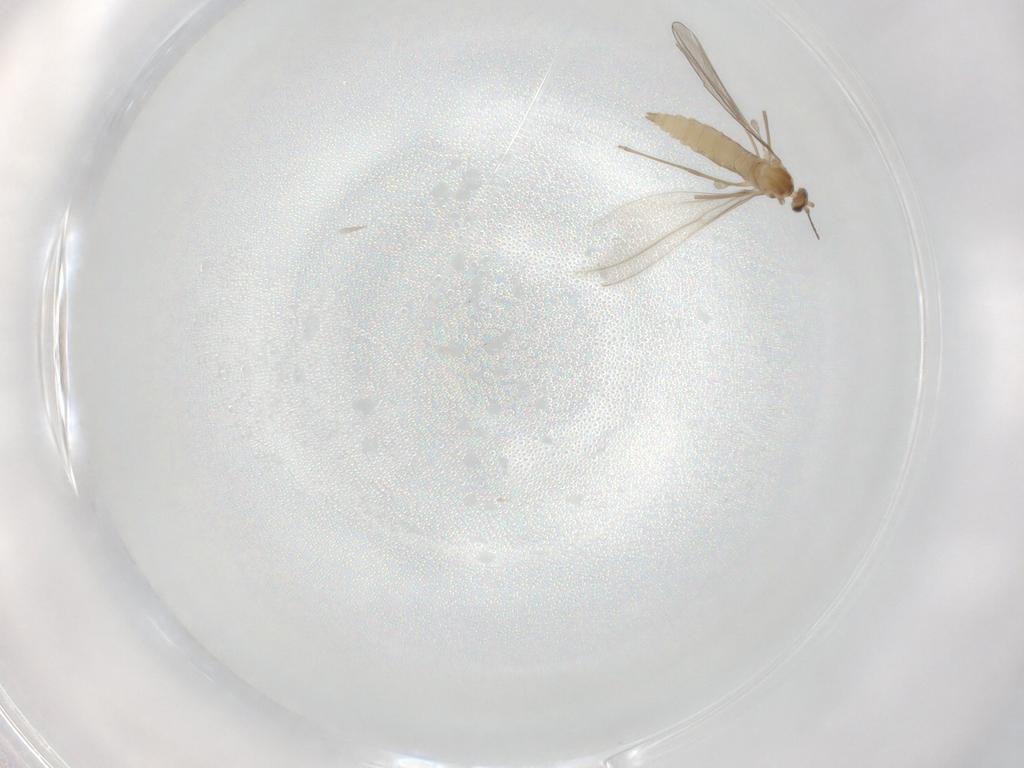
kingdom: Animalia
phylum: Arthropoda
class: Insecta
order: Diptera
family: Cecidomyiidae
